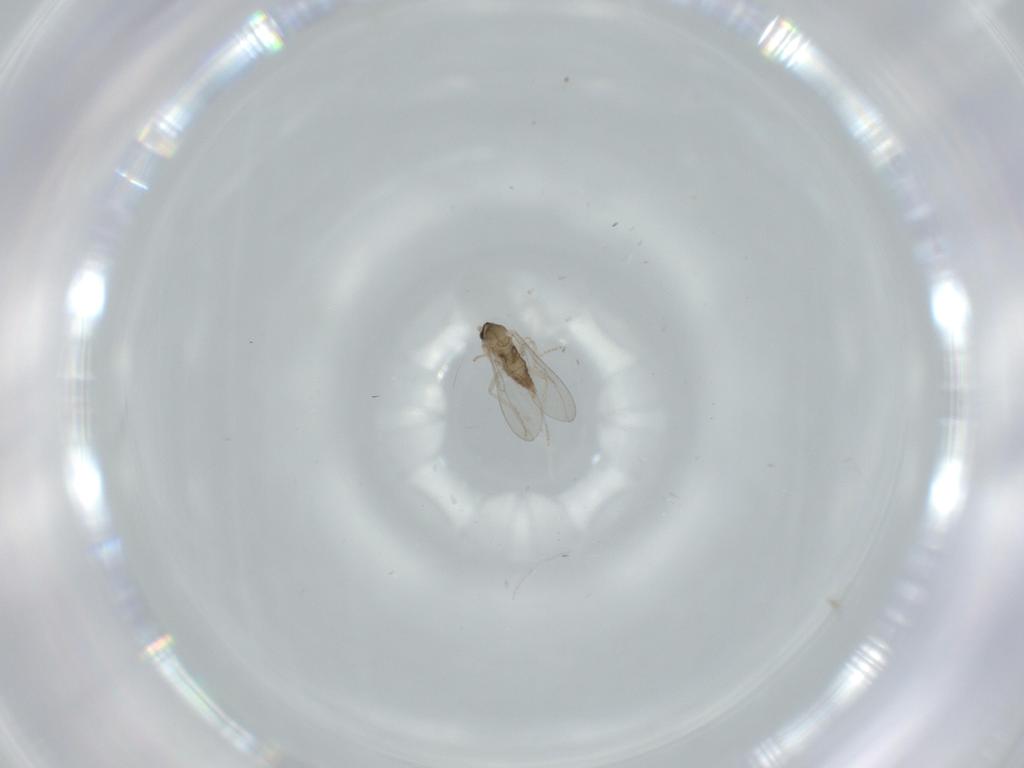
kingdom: Animalia
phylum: Arthropoda
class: Insecta
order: Diptera
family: Cecidomyiidae
